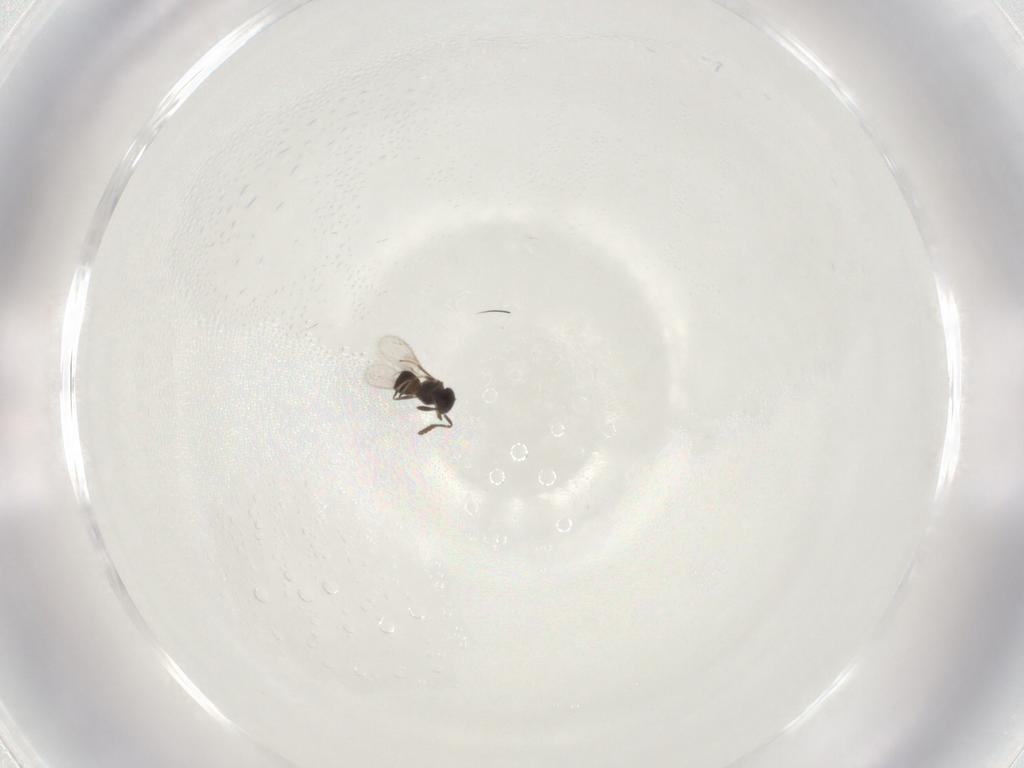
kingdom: Animalia
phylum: Arthropoda
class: Insecta
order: Hymenoptera
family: Scelionidae
